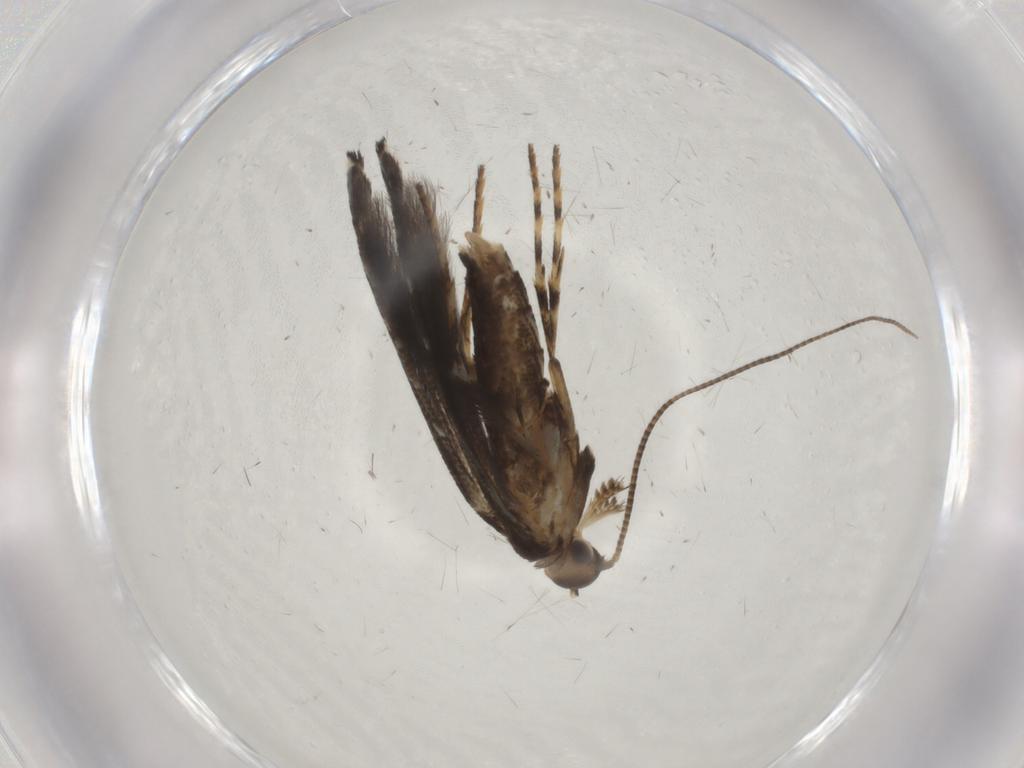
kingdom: Animalia
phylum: Arthropoda
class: Insecta
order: Lepidoptera
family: Gracillariidae
